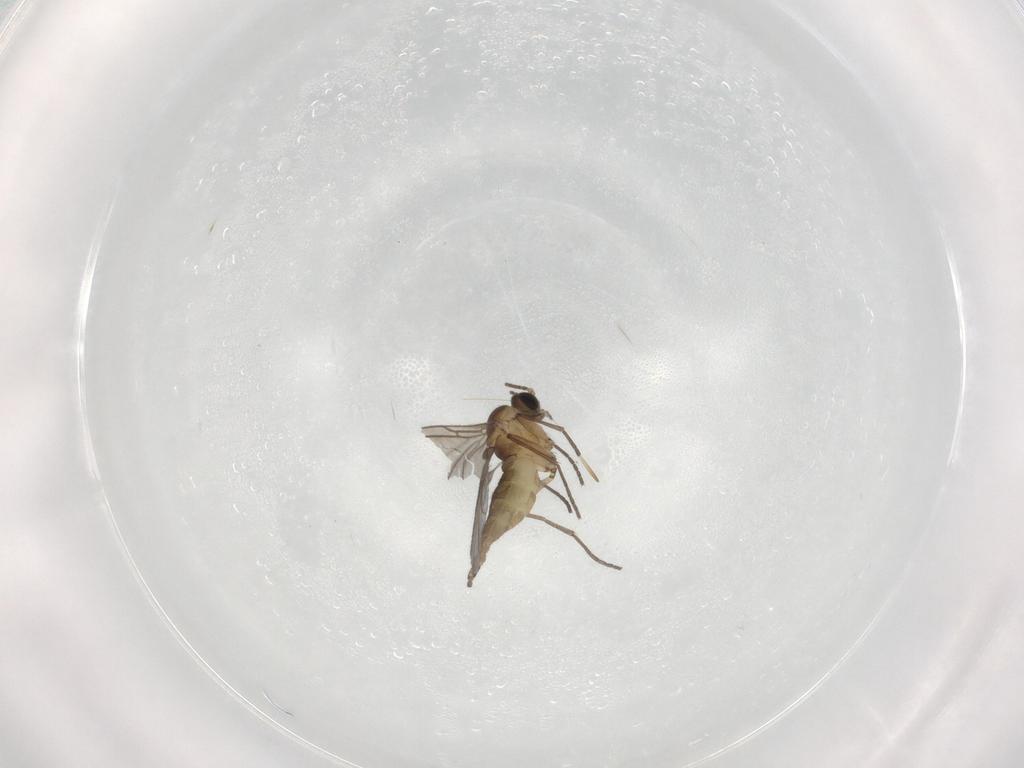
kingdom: Animalia
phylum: Arthropoda
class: Insecta
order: Diptera
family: Sciaridae
